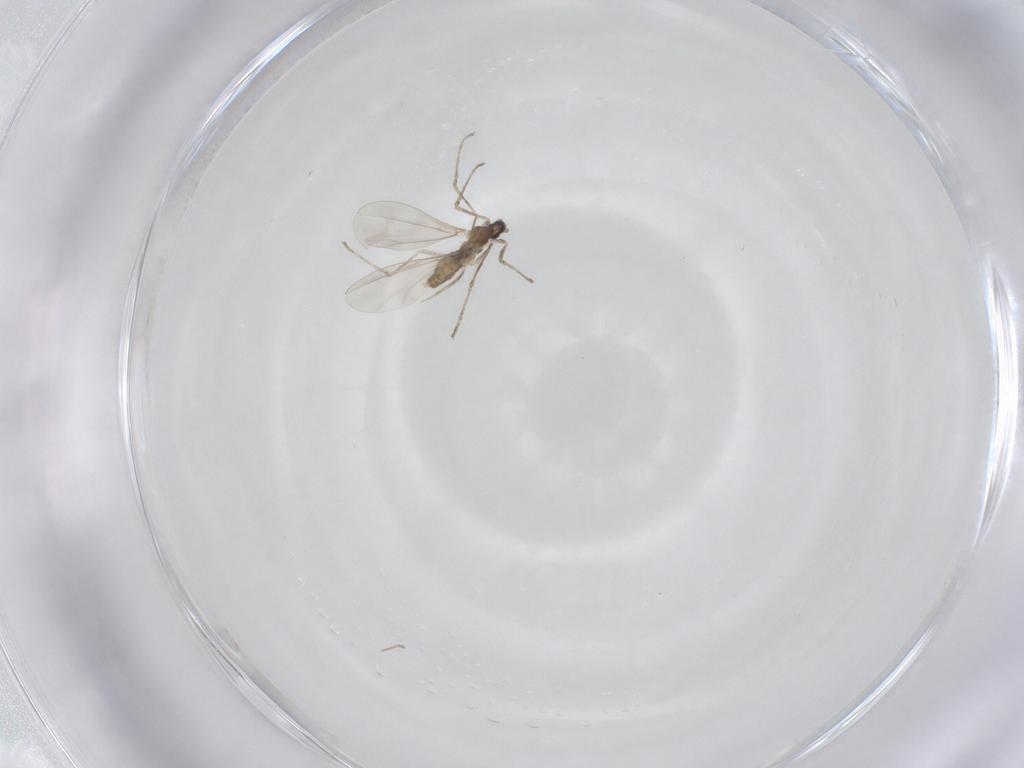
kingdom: Animalia
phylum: Arthropoda
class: Insecta
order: Diptera
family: Cecidomyiidae
